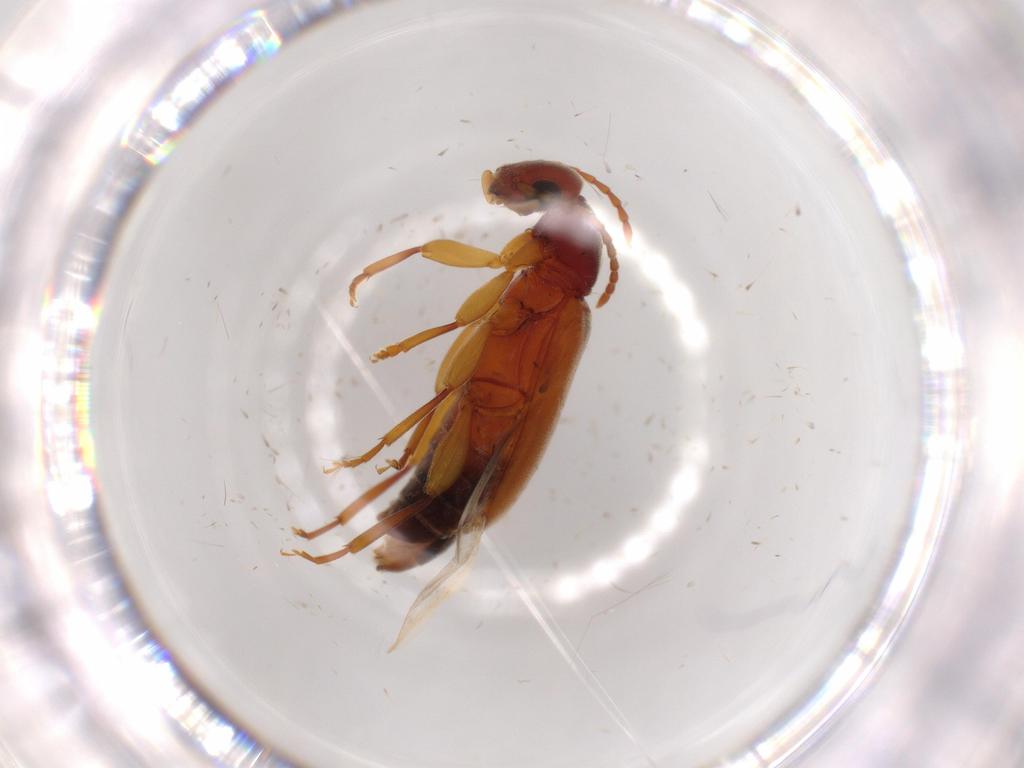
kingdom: Animalia
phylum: Arthropoda
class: Insecta
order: Coleoptera
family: Anthicidae
